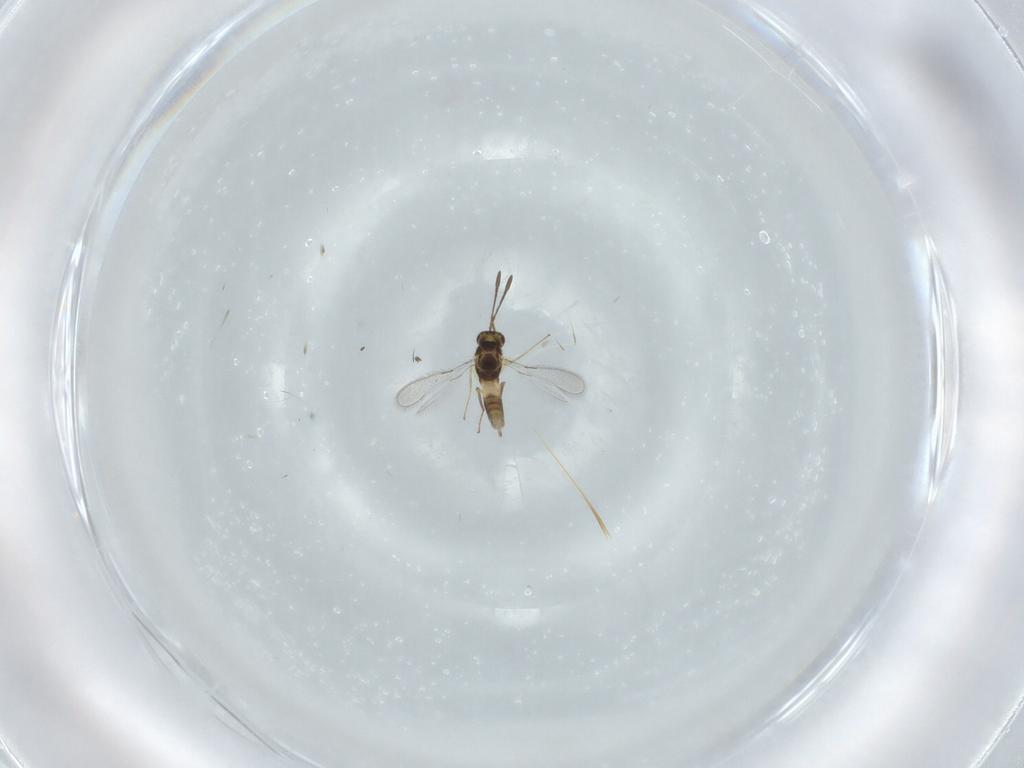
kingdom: Animalia
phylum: Arthropoda
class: Insecta
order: Hymenoptera
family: Mymaridae
